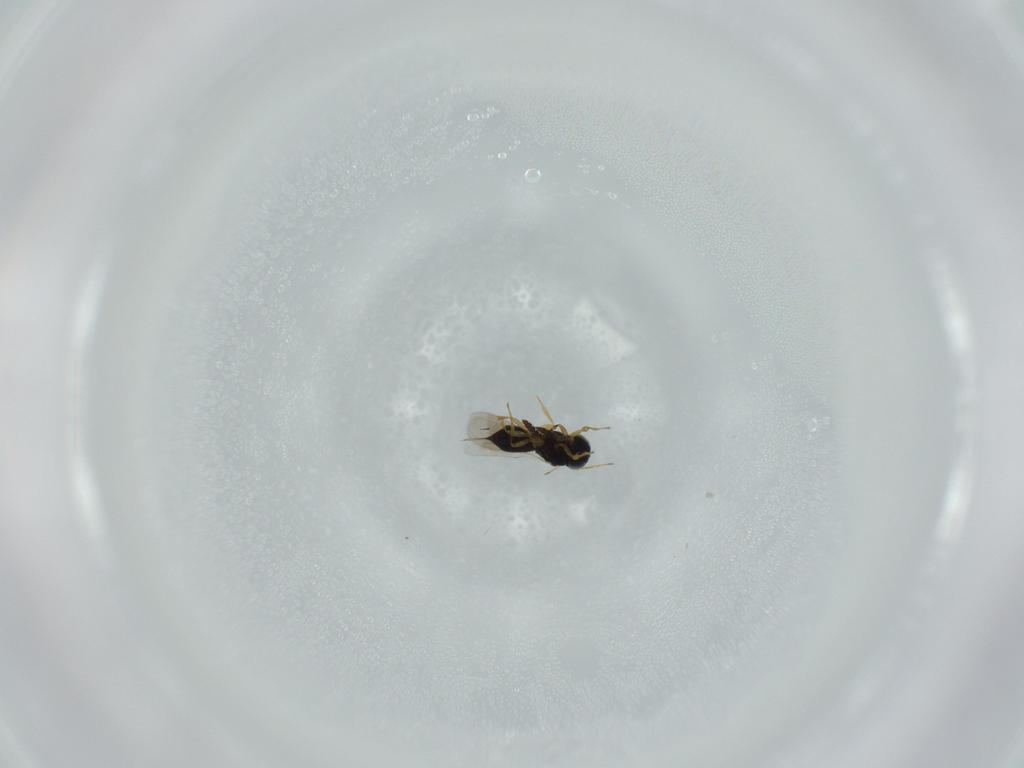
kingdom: Animalia
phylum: Arthropoda
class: Insecta
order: Hymenoptera
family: Scelionidae
